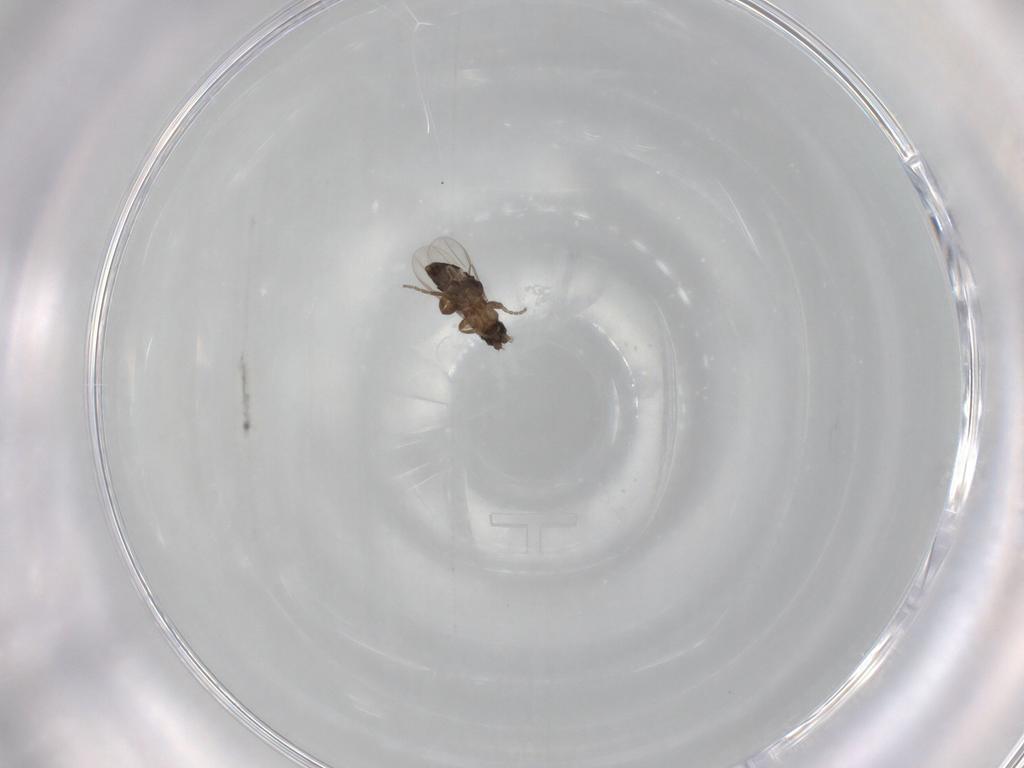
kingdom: Animalia
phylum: Arthropoda
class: Insecta
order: Diptera
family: Phoridae
